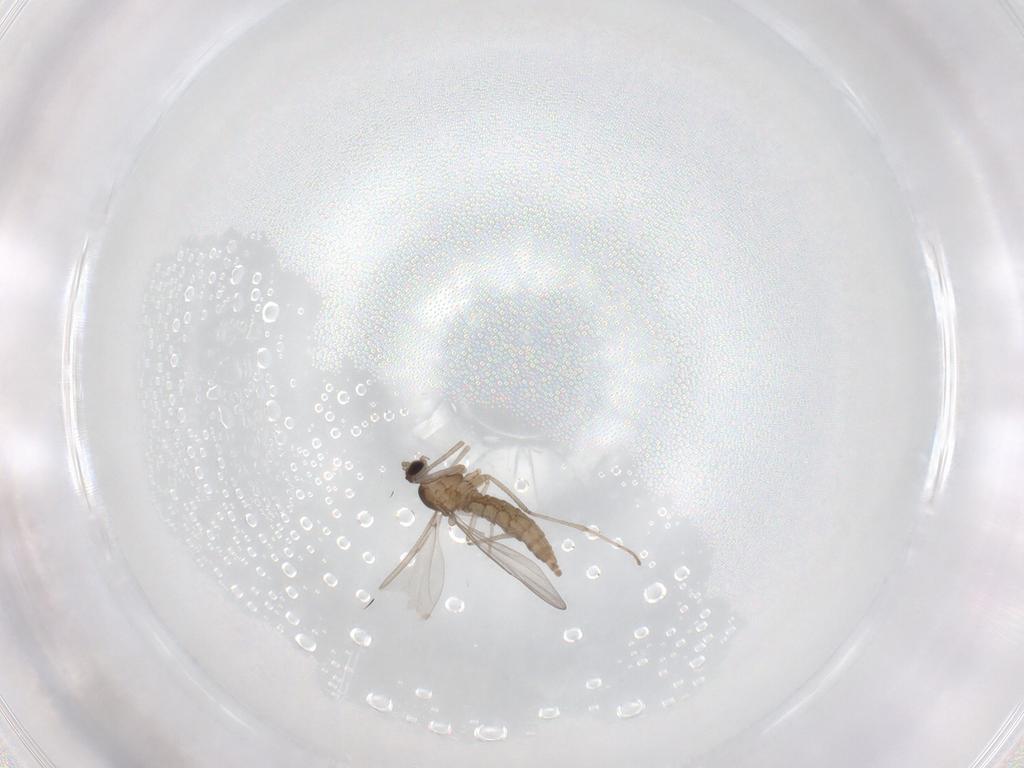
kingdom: Animalia
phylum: Arthropoda
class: Insecta
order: Diptera
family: Cecidomyiidae
